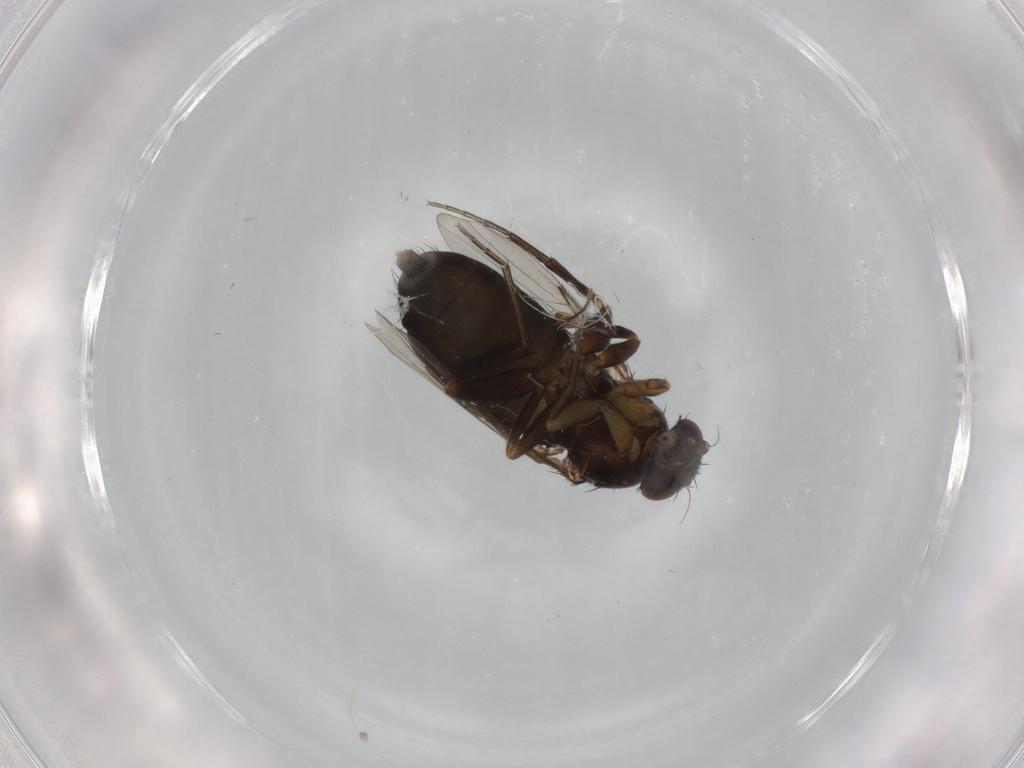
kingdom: Animalia
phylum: Arthropoda
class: Insecta
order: Diptera
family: Phoridae
